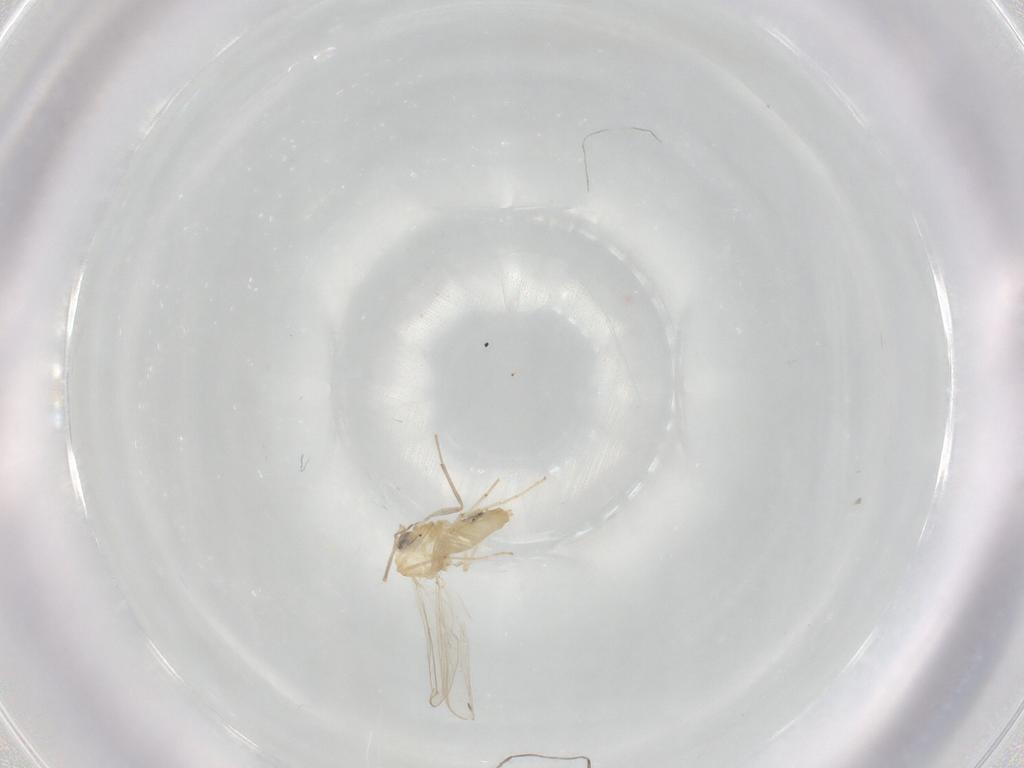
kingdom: Animalia
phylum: Arthropoda
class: Insecta
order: Diptera
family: Chironomidae
